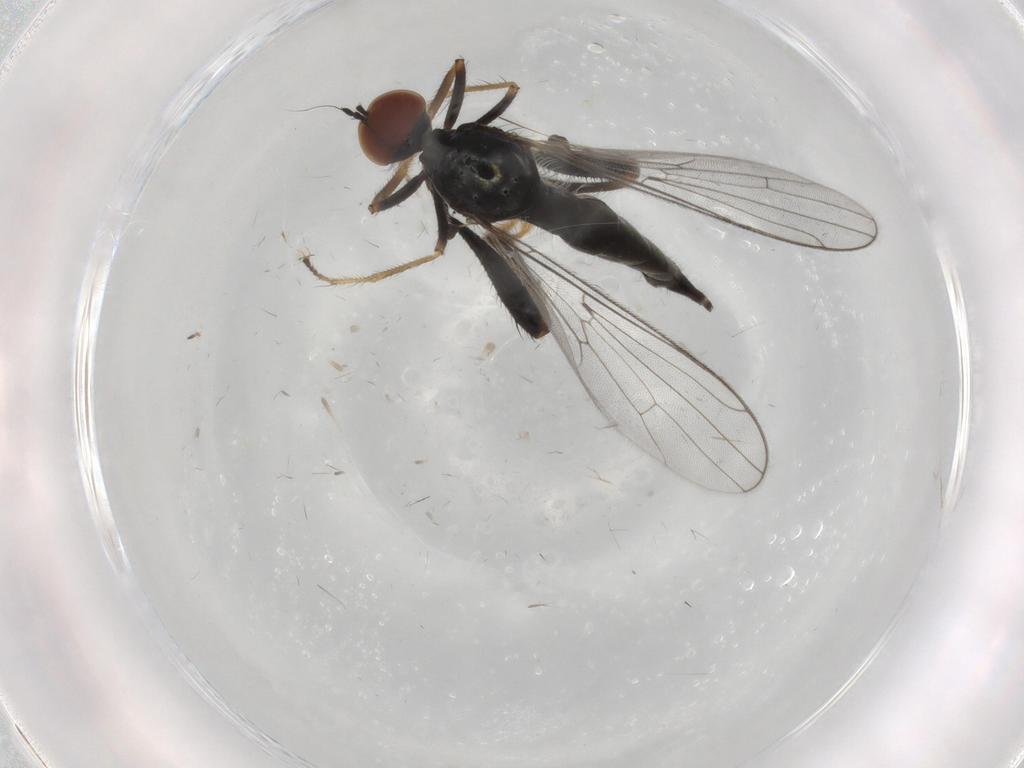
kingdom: Animalia
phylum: Arthropoda
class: Insecta
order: Diptera
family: Hybotidae
